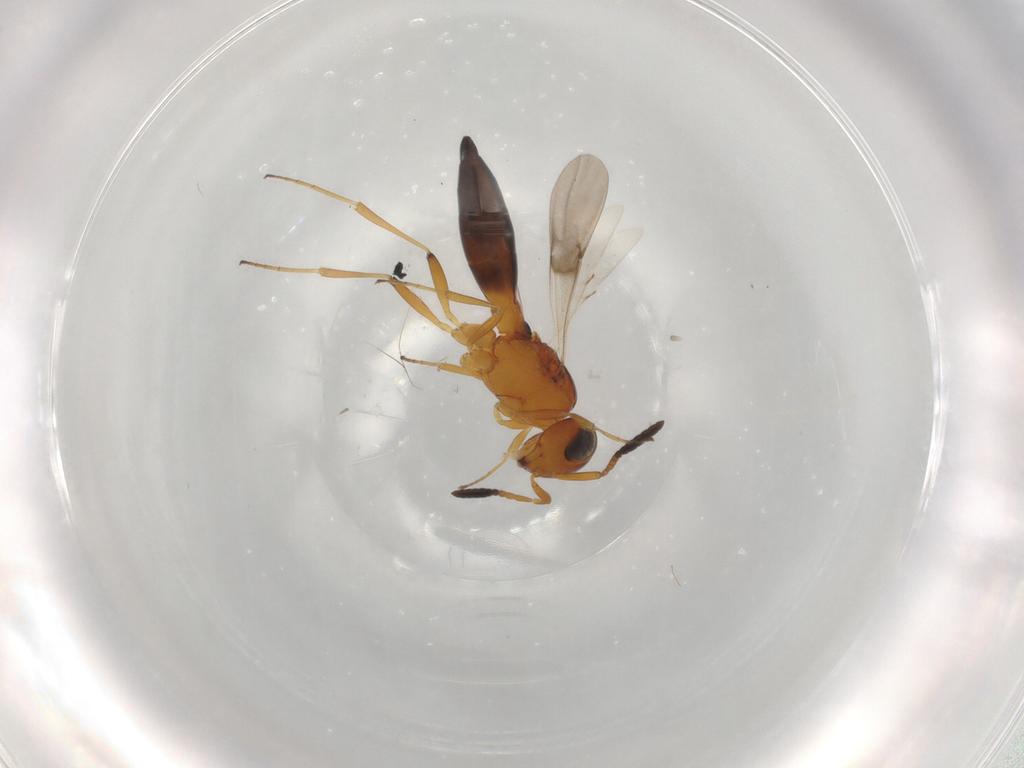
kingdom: Animalia
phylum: Arthropoda
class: Insecta
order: Hymenoptera
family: Scelionidae
